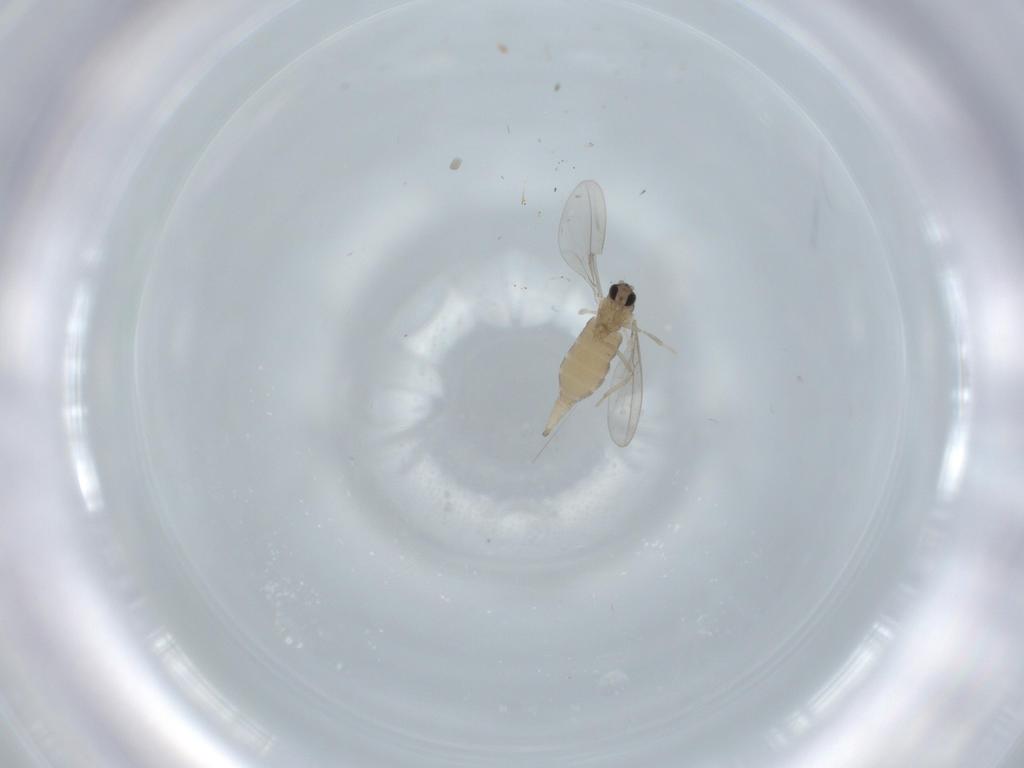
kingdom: Animalia
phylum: Arthropoda
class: Insecta
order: Diptera
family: Cecidomyiidae
